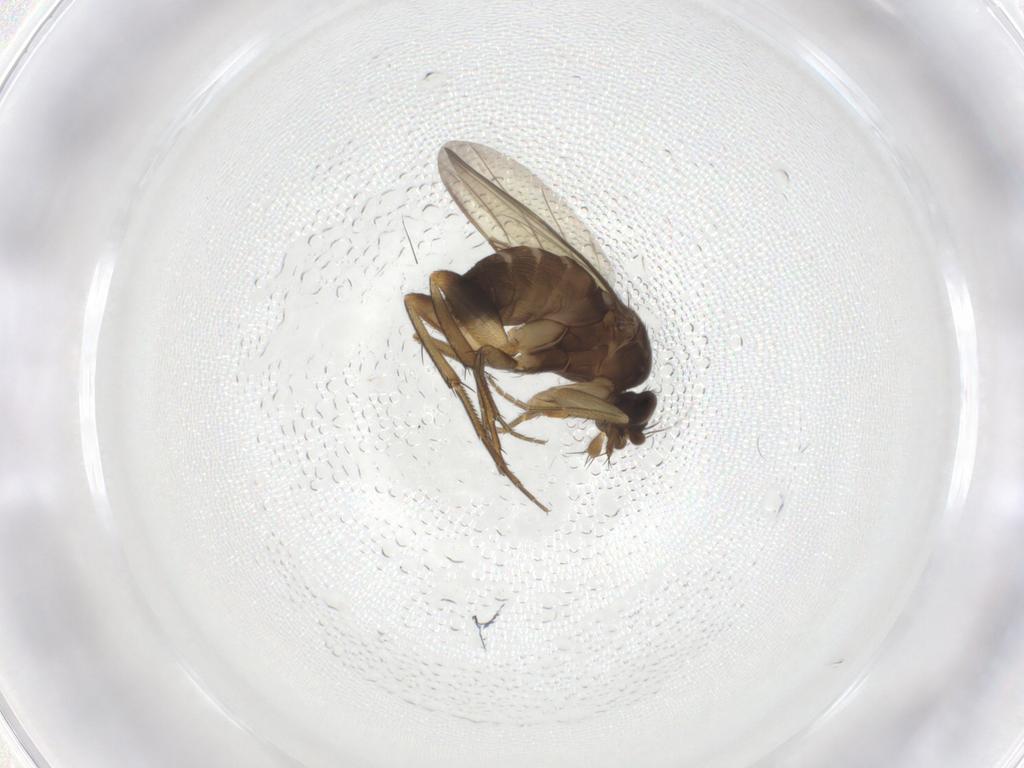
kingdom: Animalia
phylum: Arthropoda
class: Insecta
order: Diptera
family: Phoridae
